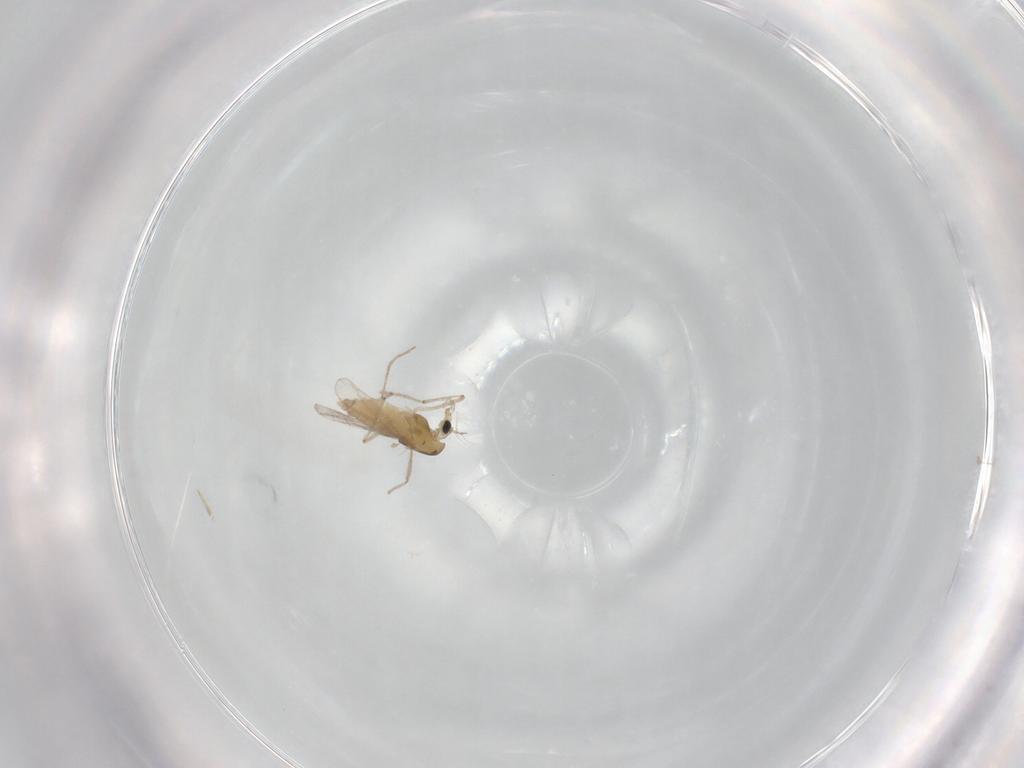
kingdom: Animalia
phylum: Arthropoda
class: Insecta
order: Diptera
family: Chironomidae
